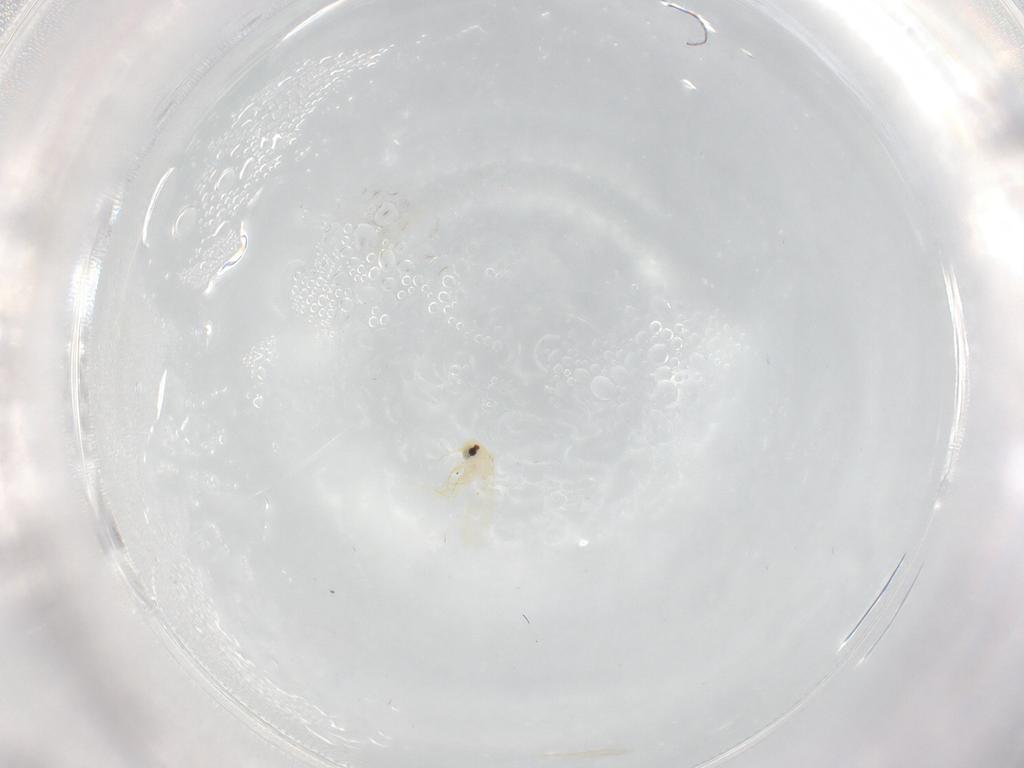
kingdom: Animalia
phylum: Arthropoda
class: Insecta
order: Hemiptera
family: Aleyrodidae
